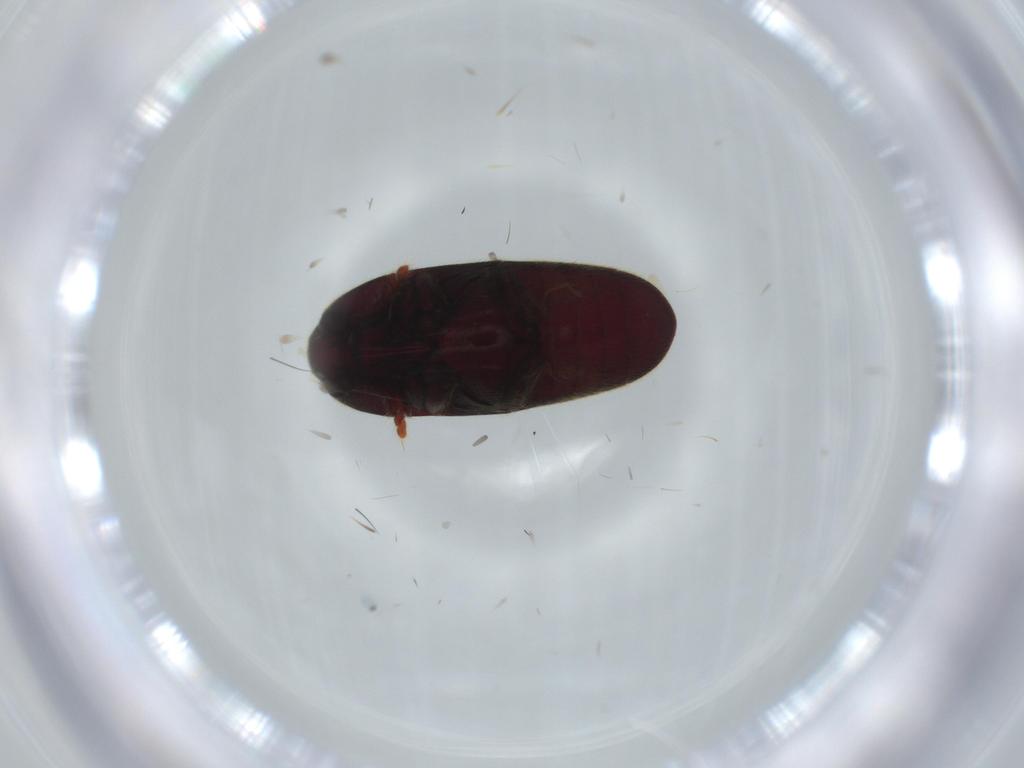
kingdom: Animalia
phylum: Arthropoda
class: Insecta
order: Coleoptera
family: Throscidae
